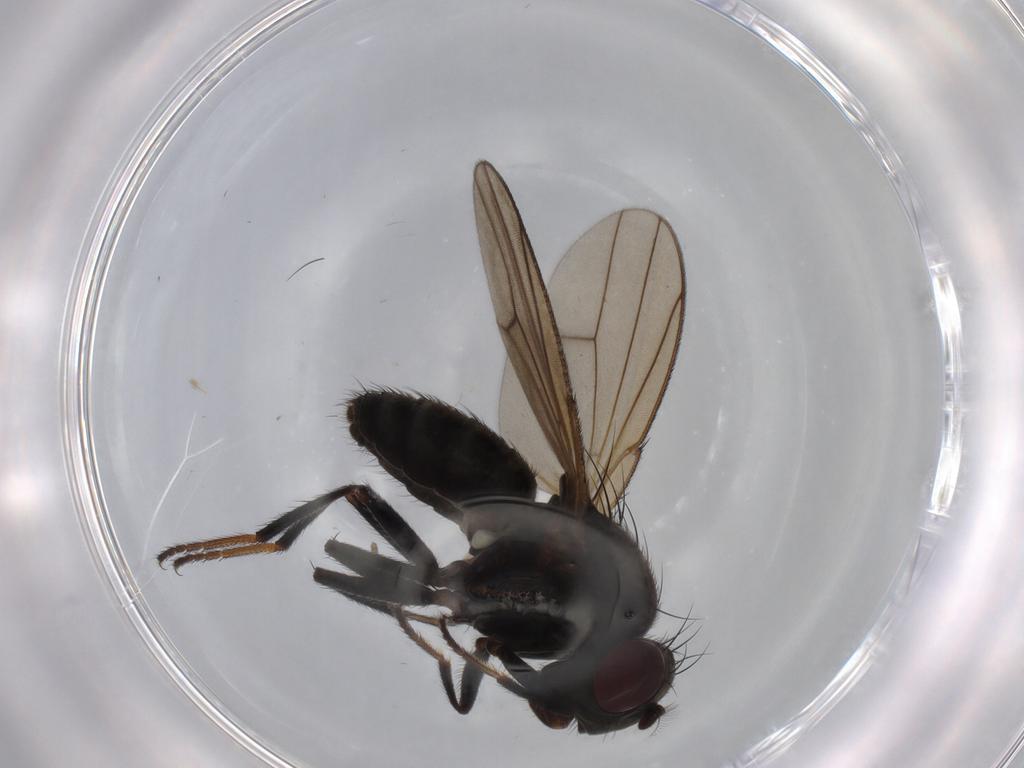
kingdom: Animalia
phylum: Arthropoda
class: Insecta
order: Diptera
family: Ephydridae
